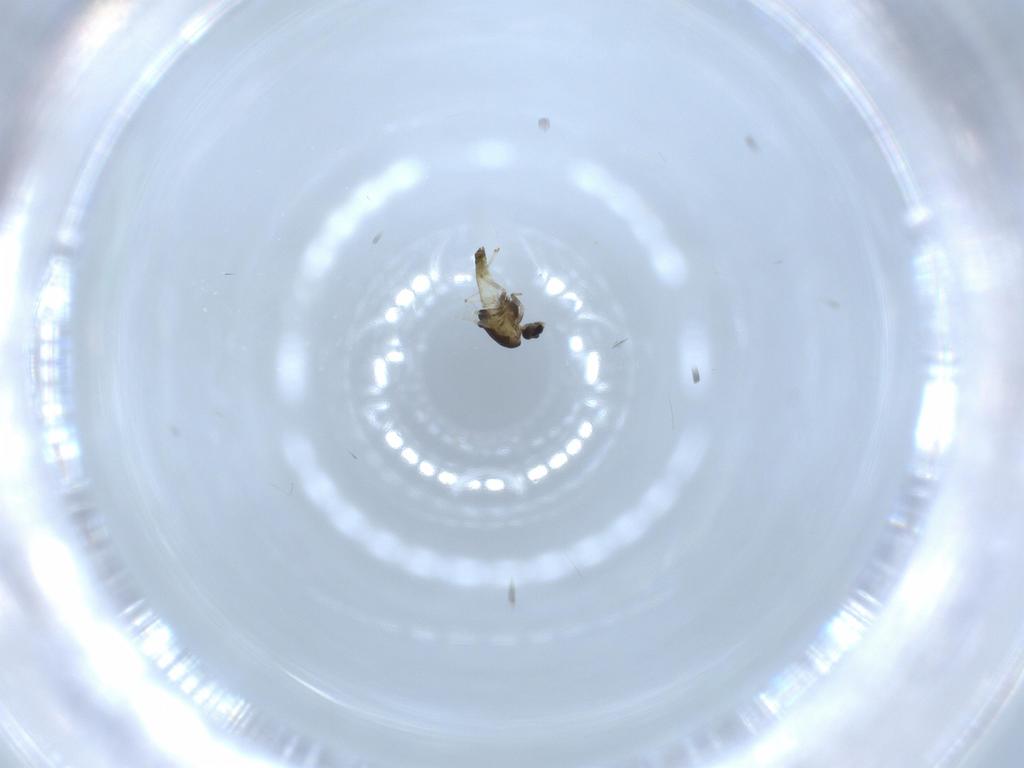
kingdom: Animalia
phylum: Arthropoda
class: Insecta
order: Diptera
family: Chironomidae
